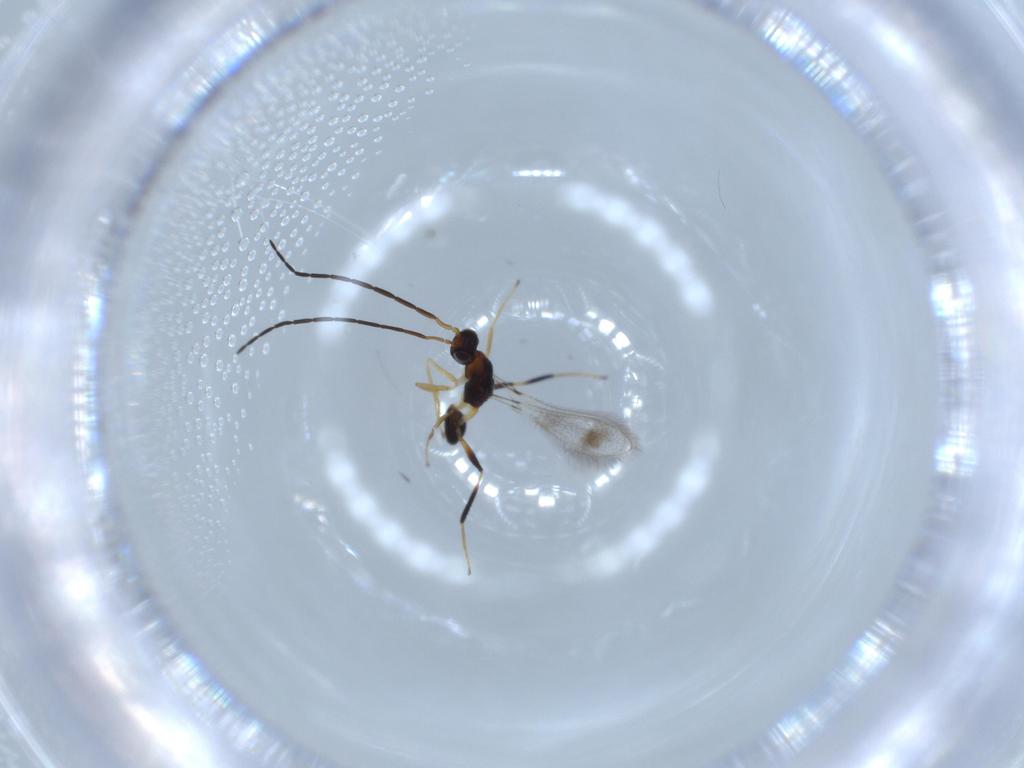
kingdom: Animalia
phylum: Arthropoda
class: Insecta
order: Hymenoptera
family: Mymaridae
